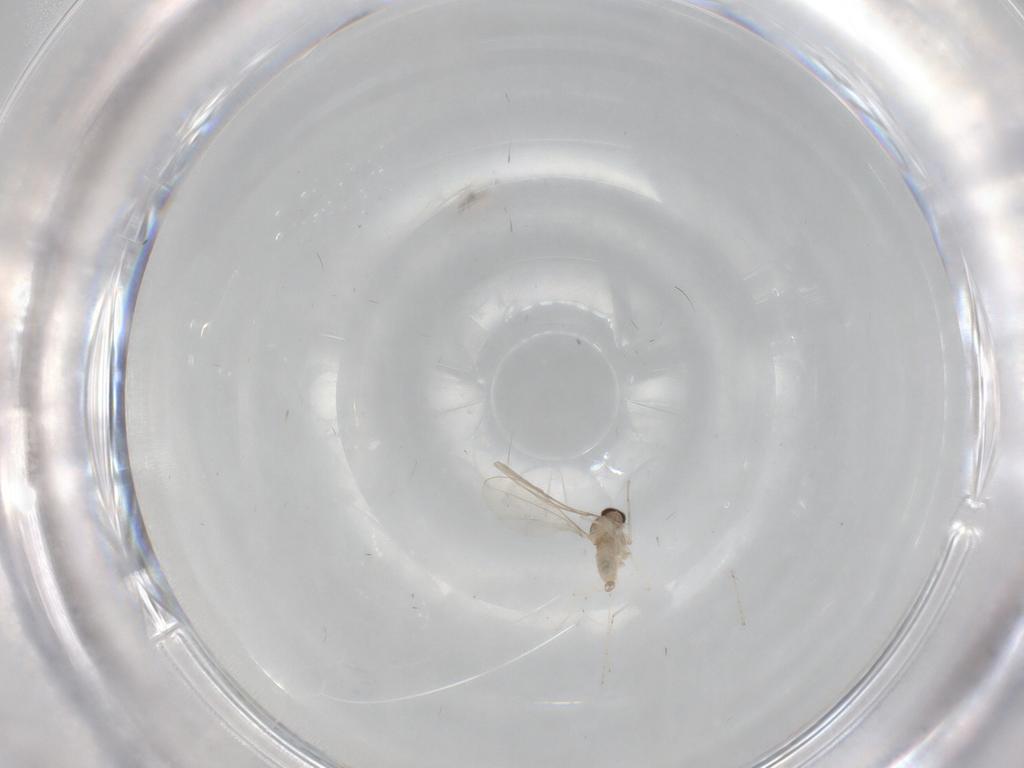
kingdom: Animalia
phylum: Arthropoda
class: Insecta
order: Diptera
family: Cecidomyiidae
